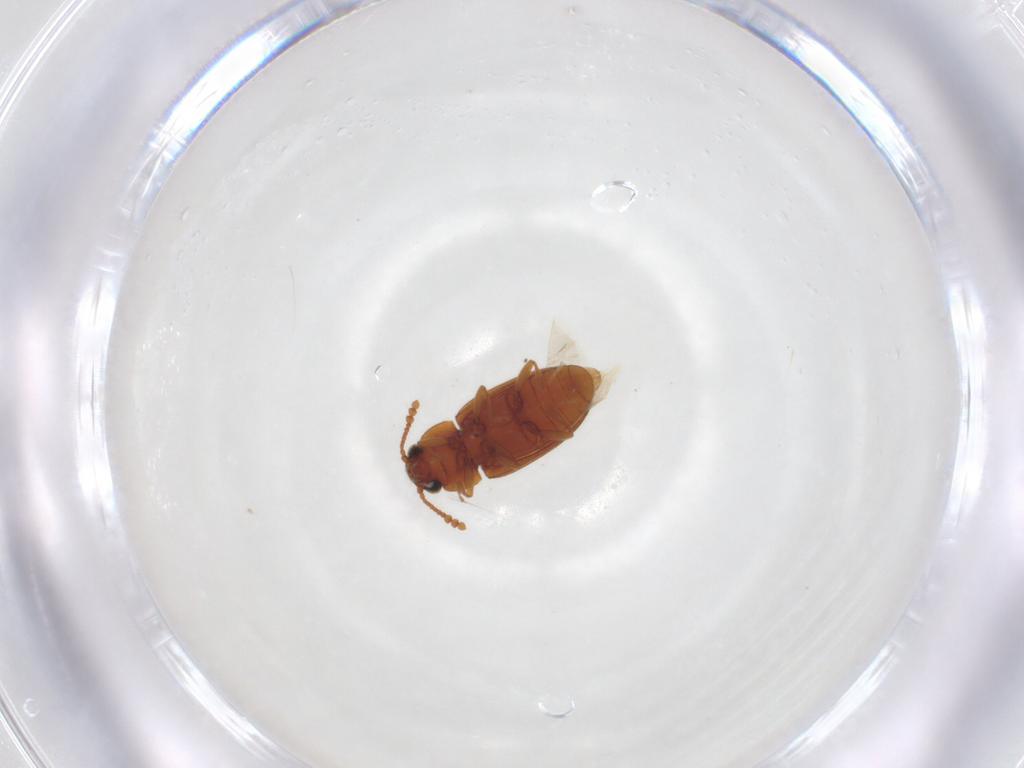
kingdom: Animalia
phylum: Arthropoda
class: Insecta
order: Coleoptera
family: Erotylidae
